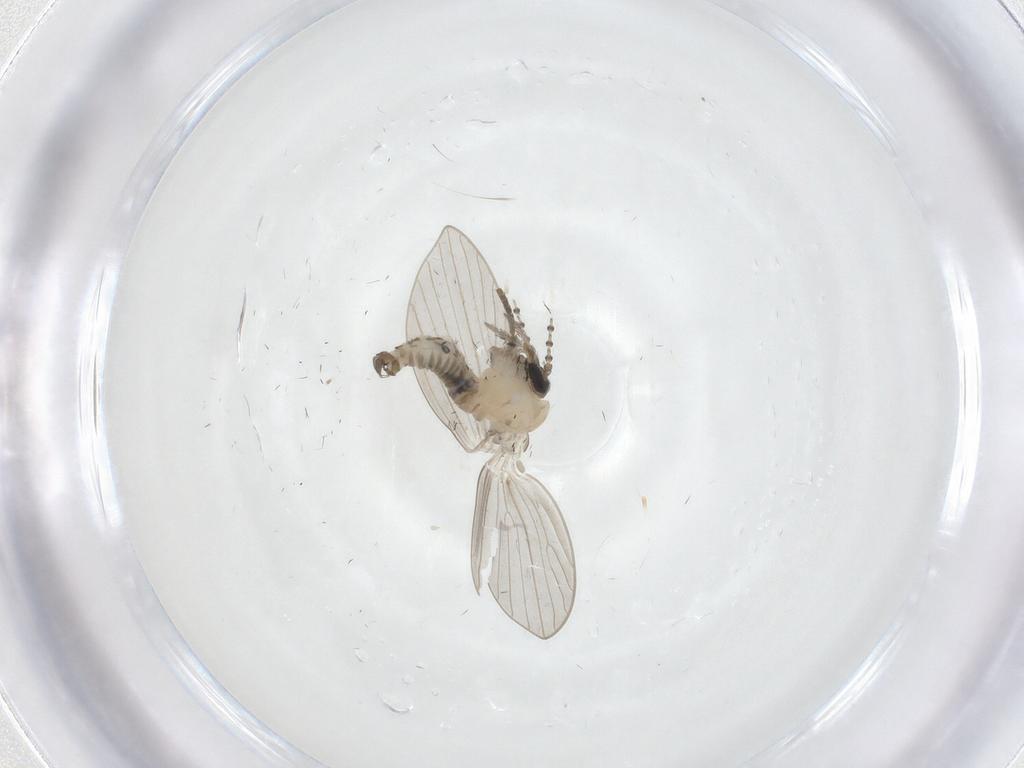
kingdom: Animalia
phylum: Arthropoda
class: Insecta
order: Diptera
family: Psychodidae
